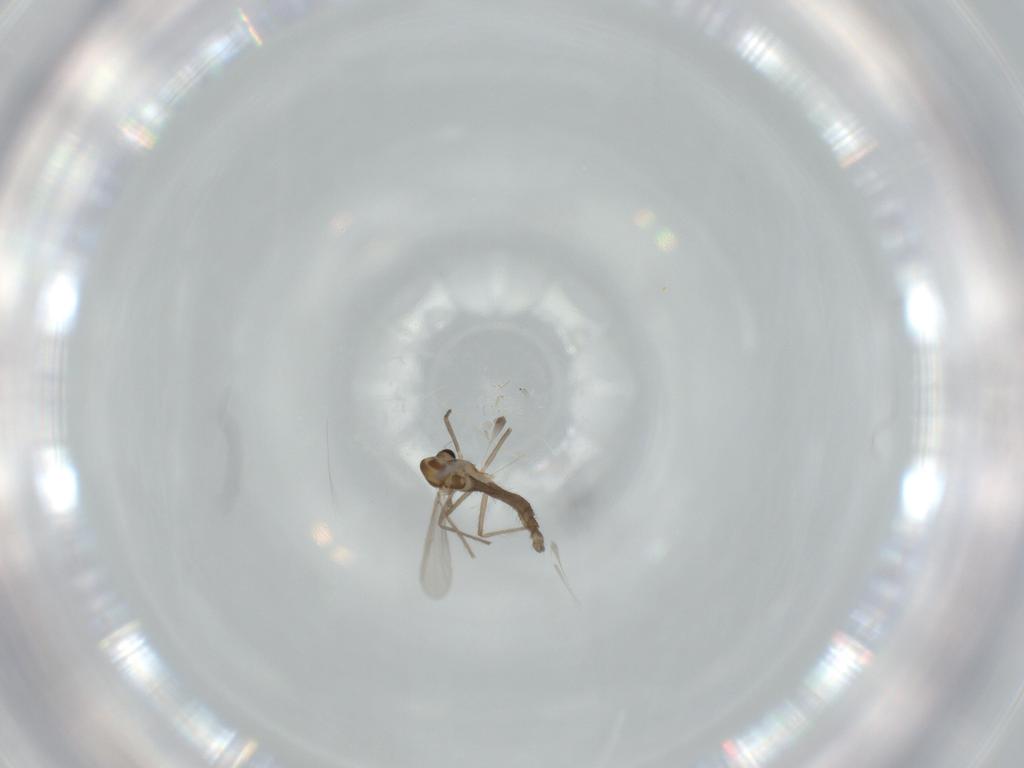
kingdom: Animalia
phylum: Arthropoda
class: Insecta
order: Diptera
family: Chironomidae
